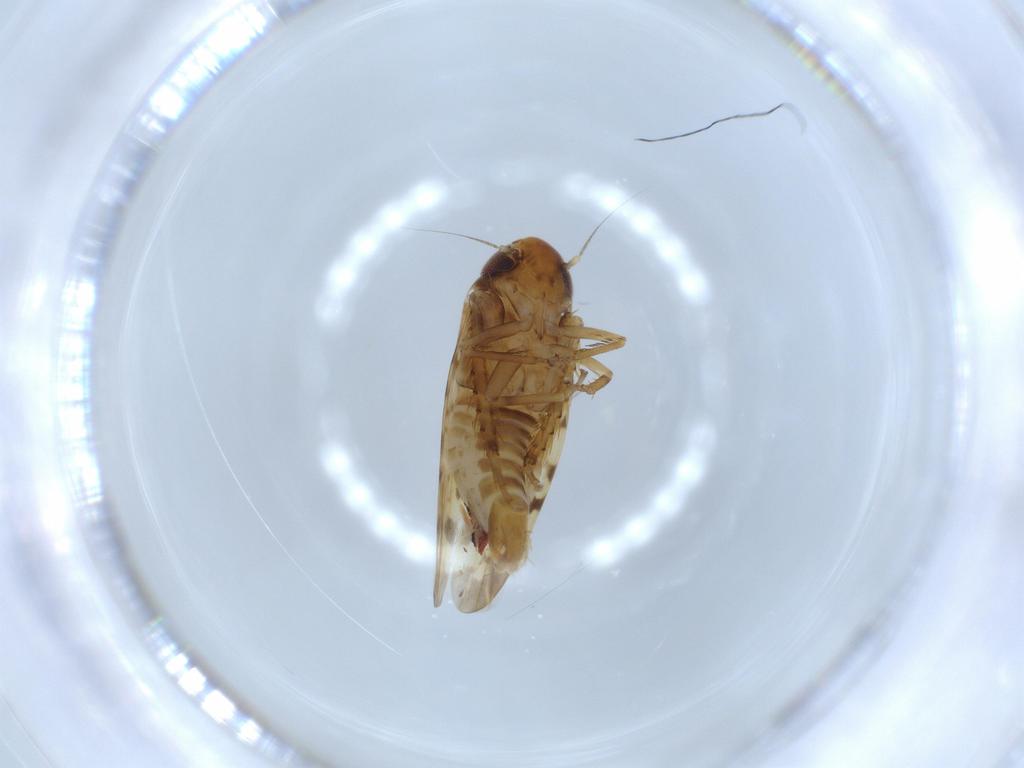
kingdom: Animalia
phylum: Arthropoda
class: Insecta
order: Hemiptera
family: Cicadellidae
